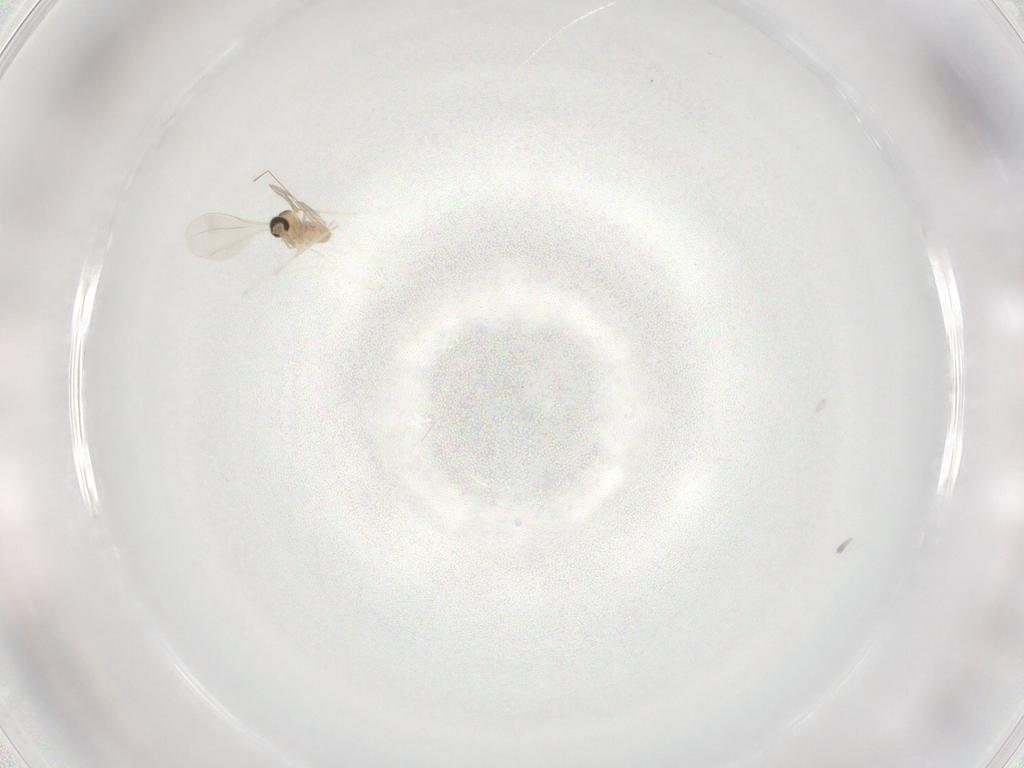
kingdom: Animalia
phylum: Arthropoda
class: Insecta
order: Diptera
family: Cecidomyiidae
